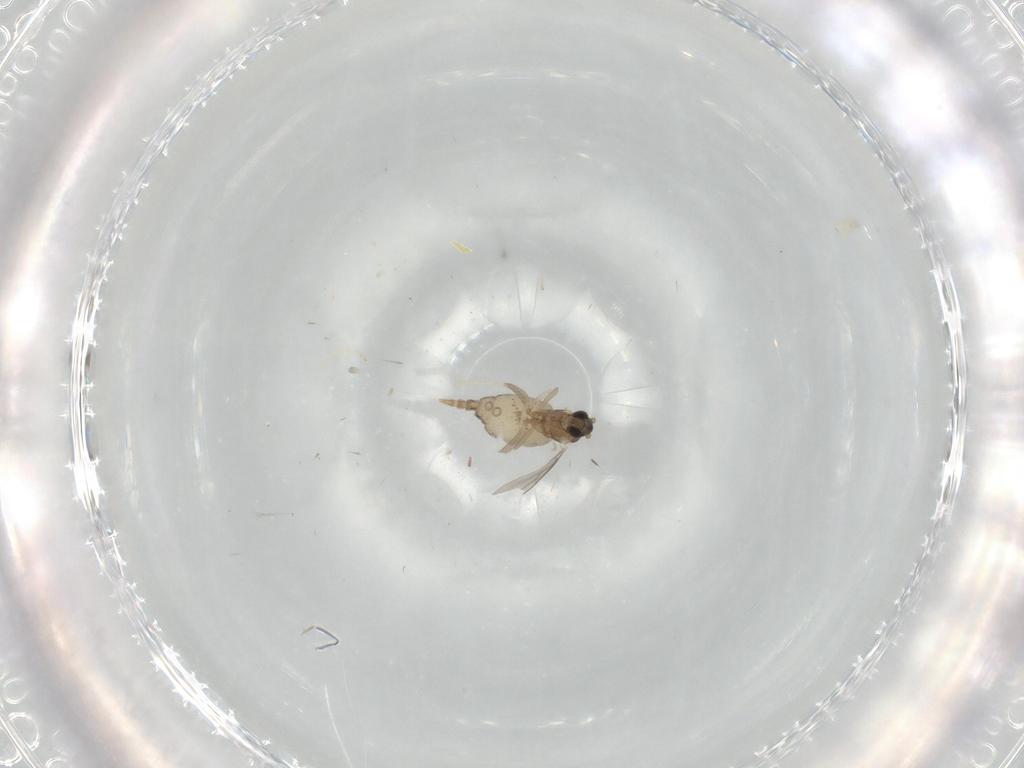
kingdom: Animalia
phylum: Arthropoda
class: Insecta
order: Diptera
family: Cecidomyiidae
